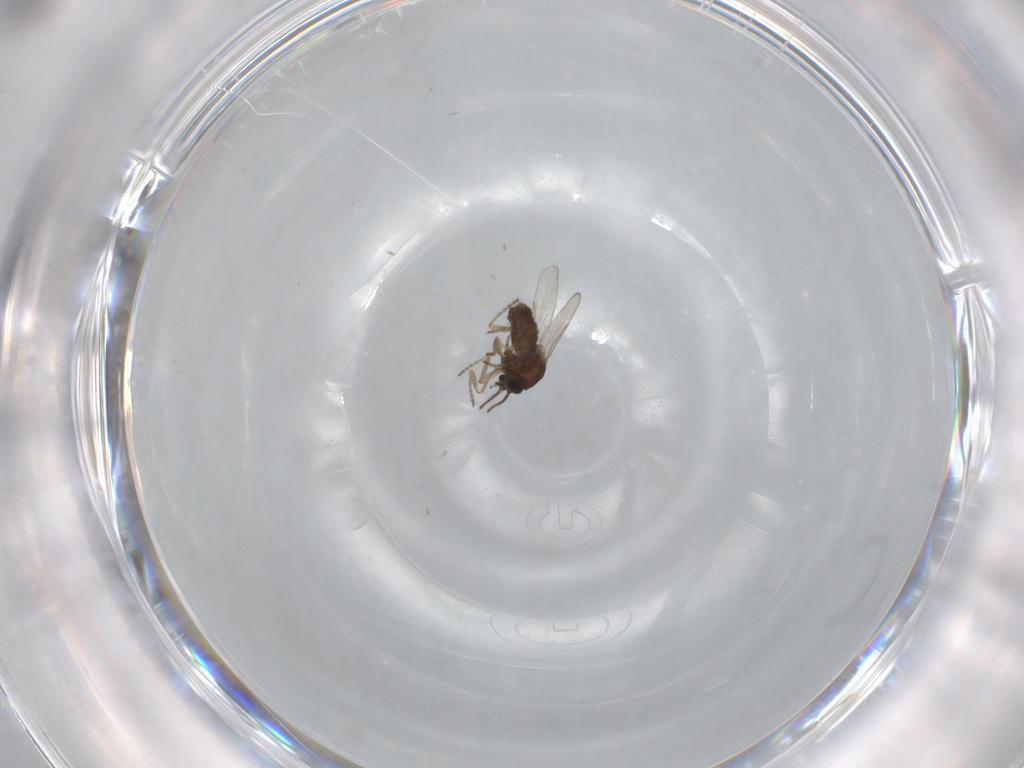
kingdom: Animalia
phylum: Arthropoda
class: Insecta
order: Diptera
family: Ceratopogonidae
